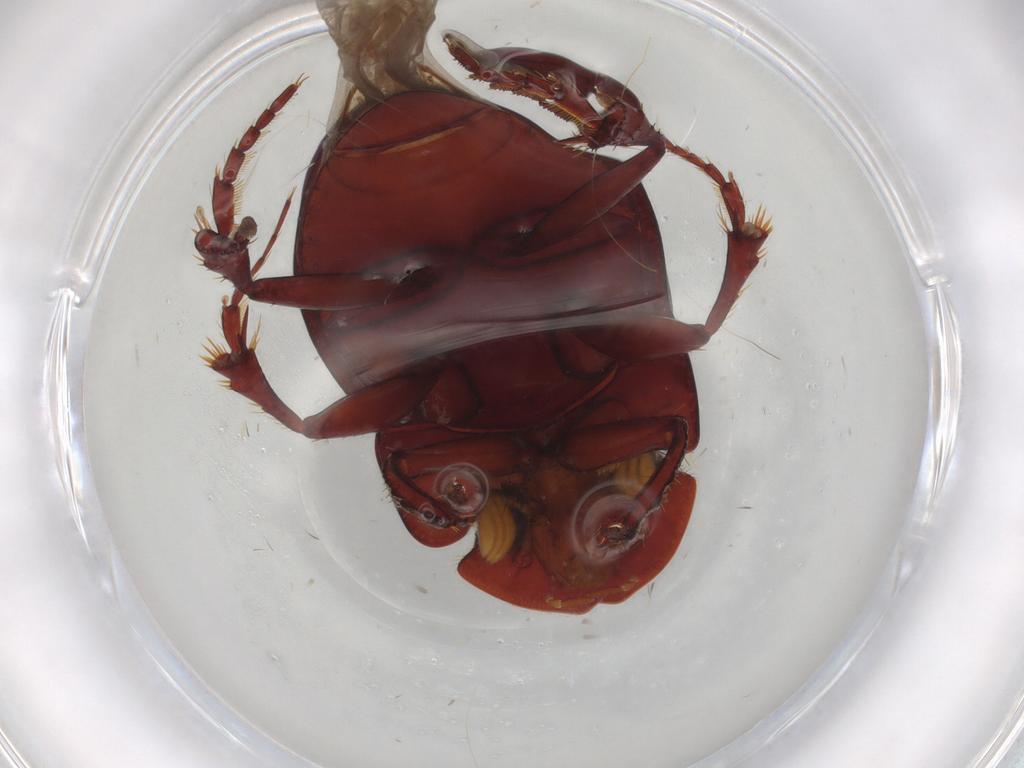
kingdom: Animalia
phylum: Arthropoda
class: Insecta
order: Coleoptera
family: Scarabaeidae
